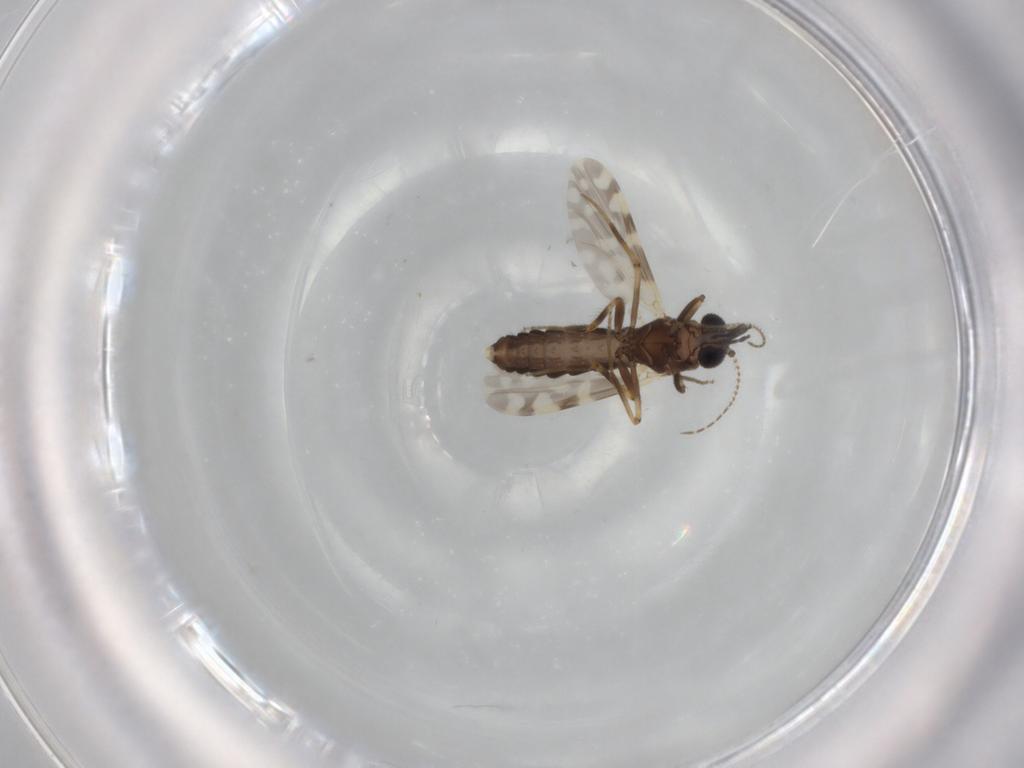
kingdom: Animalia
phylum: Arthropoda
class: Insecta
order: Diptera
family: Ceratopogonidae
